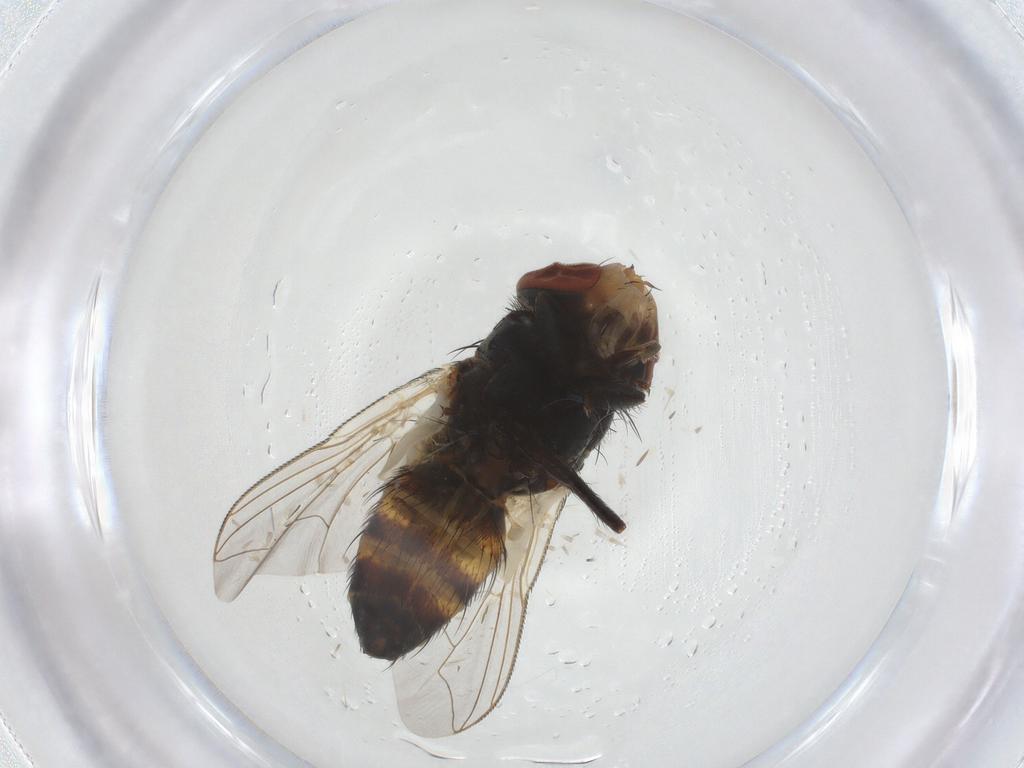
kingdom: Animalia
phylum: Arthropoda
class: Insecta
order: Diptera
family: Sarcophagidae
